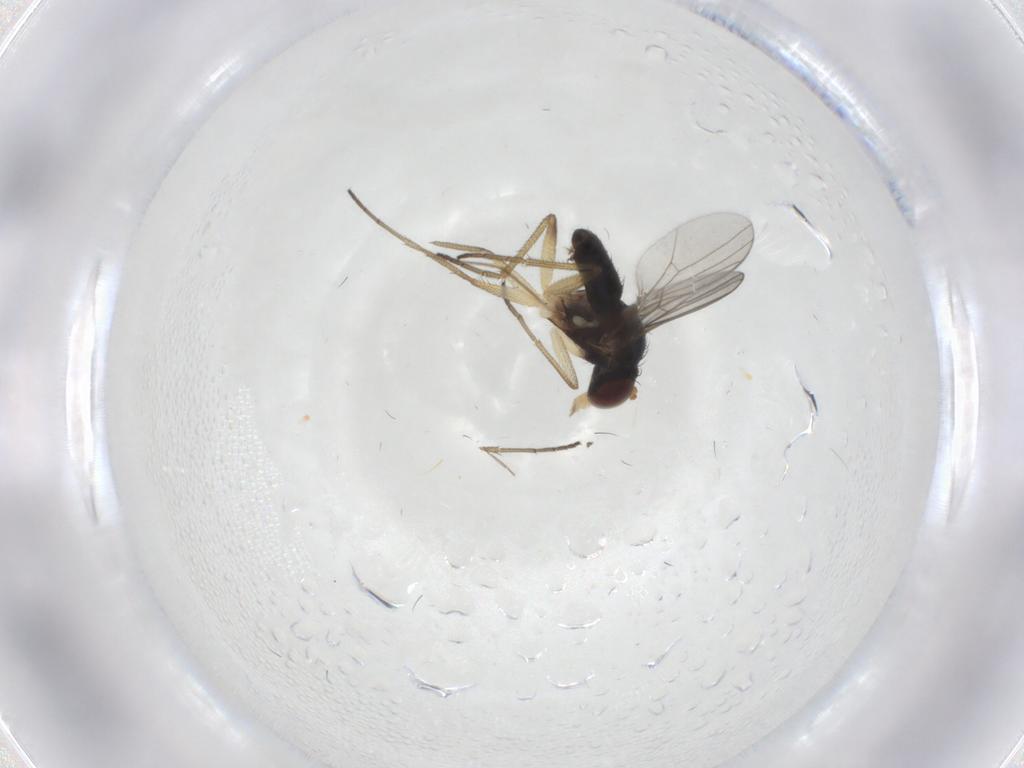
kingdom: Animalia
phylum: Arthropoda
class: Insecta
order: Diptera
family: Dolichopodidae
